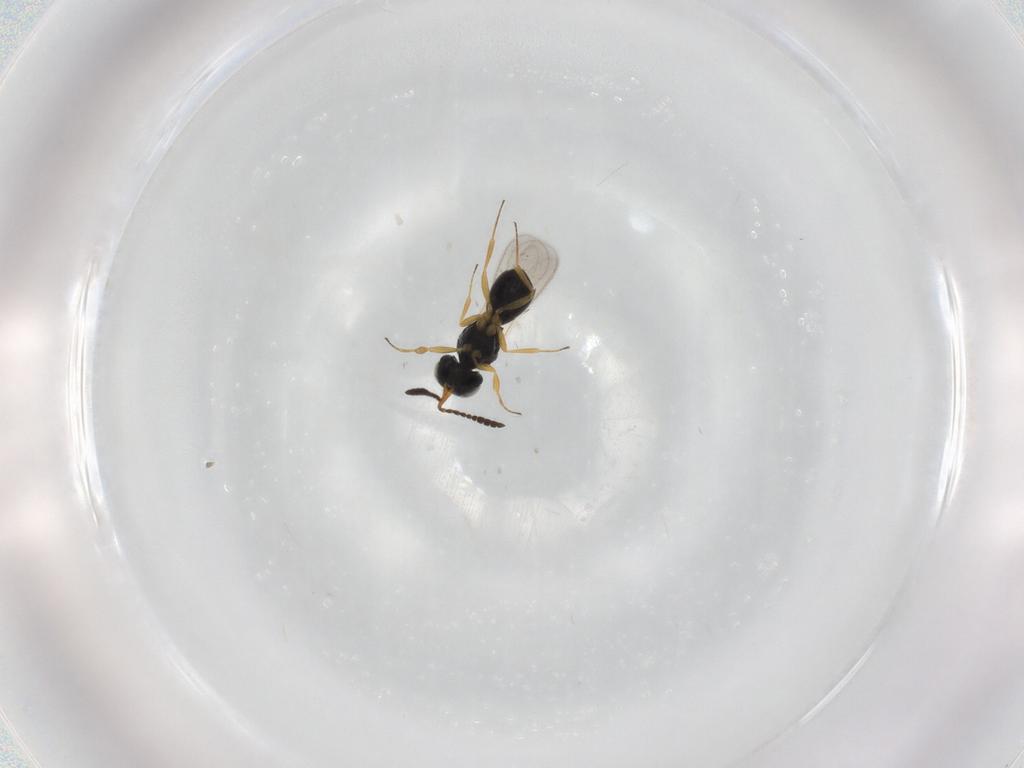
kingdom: Animalia
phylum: Arthropoda
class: Insecta
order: Hymenoptera
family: Scelionidae
